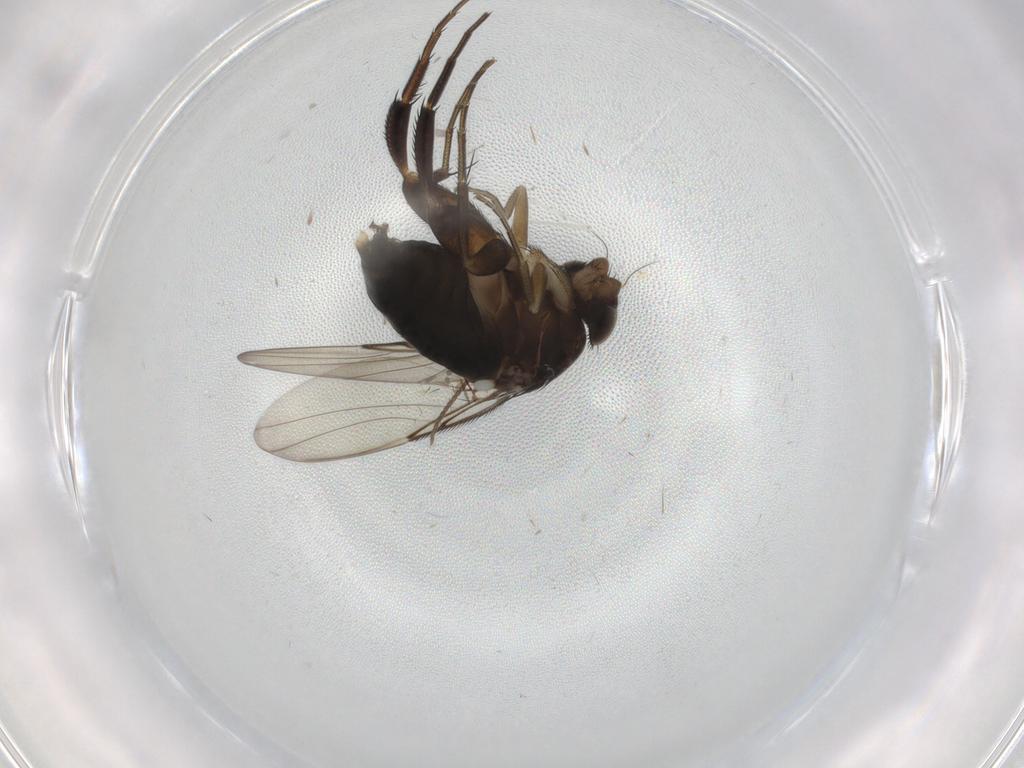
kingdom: Animalia
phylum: Arthropoda
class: Insecta
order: Diptera
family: Phoridae
